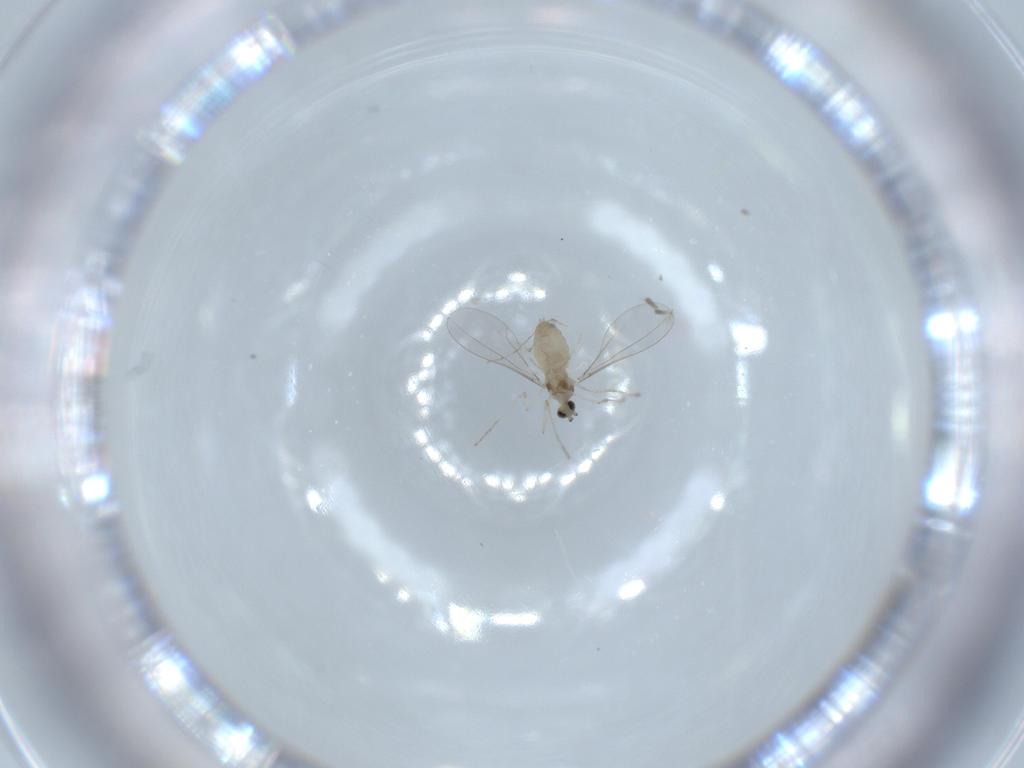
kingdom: Animalia
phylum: Arthropoda
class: Insecta
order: Diptera
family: Cecidomyiidae
